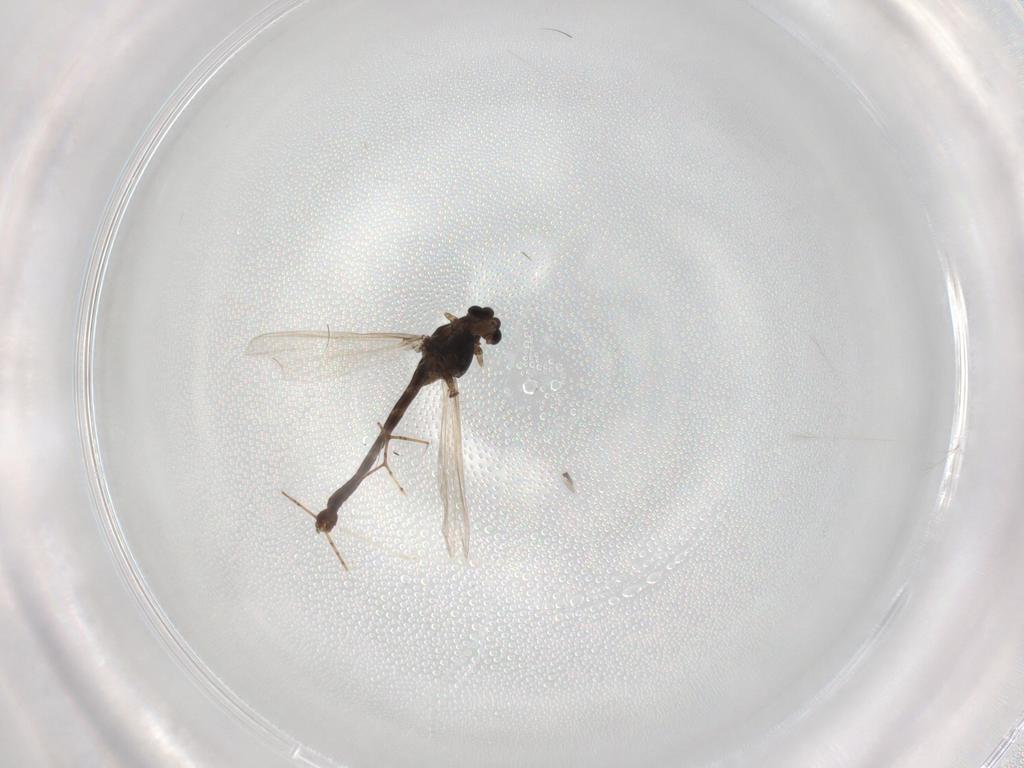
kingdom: Animalia
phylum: Arthropoda
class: Insecta
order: Diptera
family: Chironomidae
